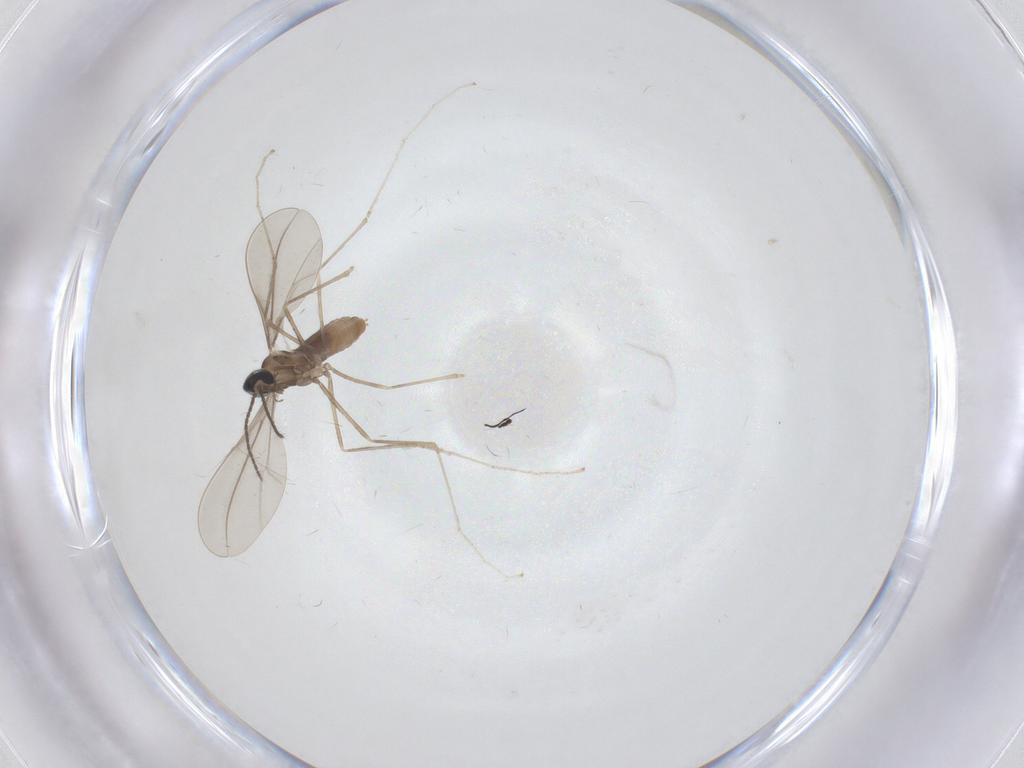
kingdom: Animalia
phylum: Arthropoda
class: Insecta
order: Diptera
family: Cecidomyiidae
